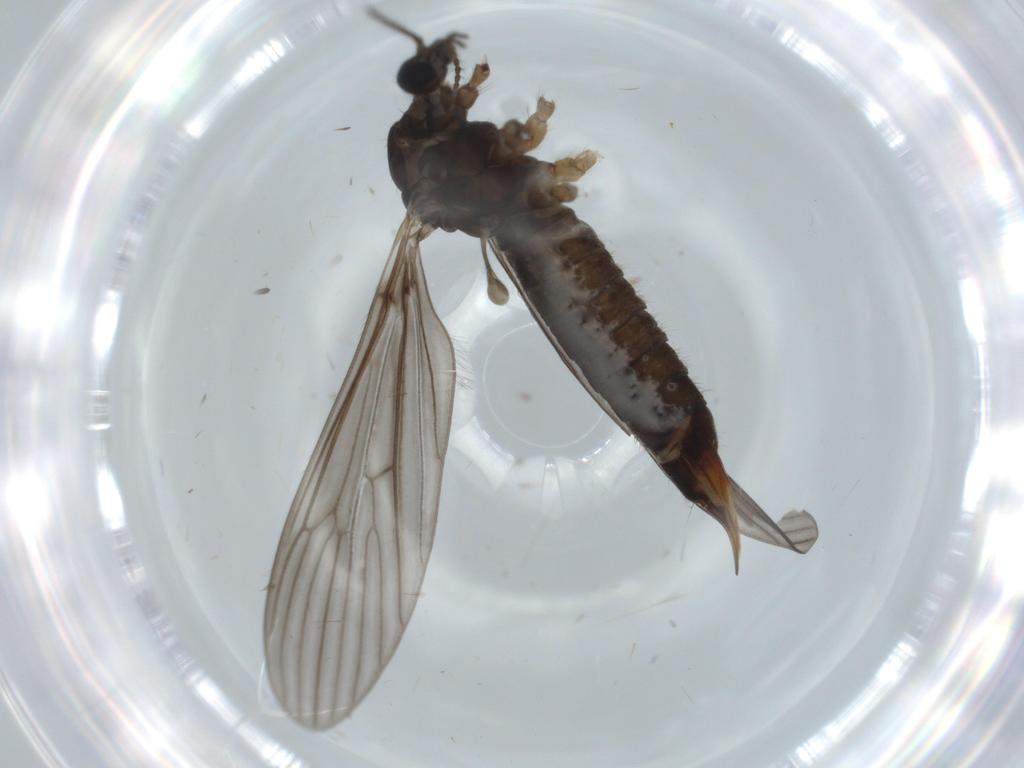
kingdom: Animalia
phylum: Arthropoda
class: Insecta
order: Diptera
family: Limoniidae
